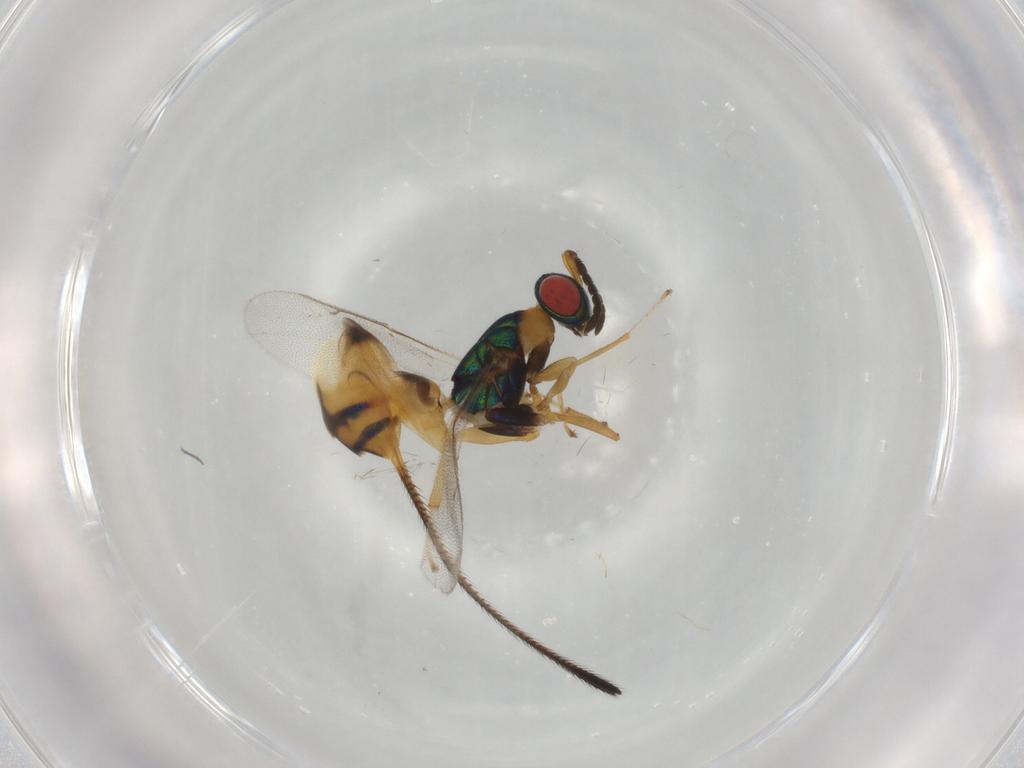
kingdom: Animalia
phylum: Arthropoda
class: Insecta
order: Hymenoptera
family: Pteromalidae
